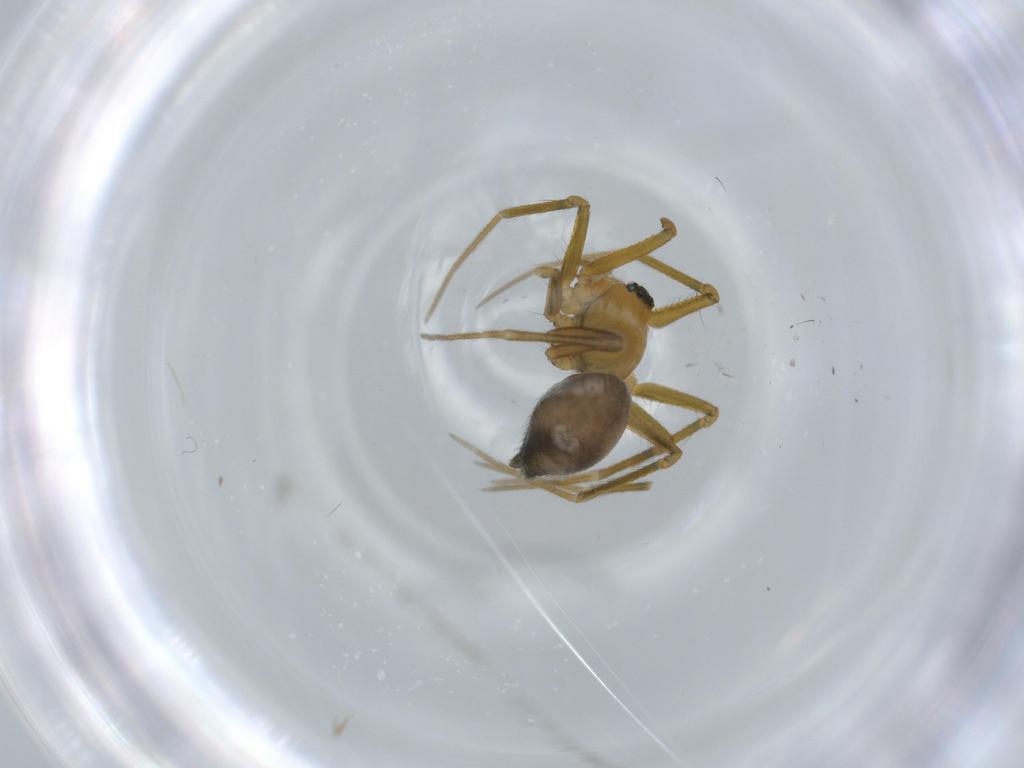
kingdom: Animalia
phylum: Arthropoda
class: Arachnida
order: Araneae
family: Linyphiidae
